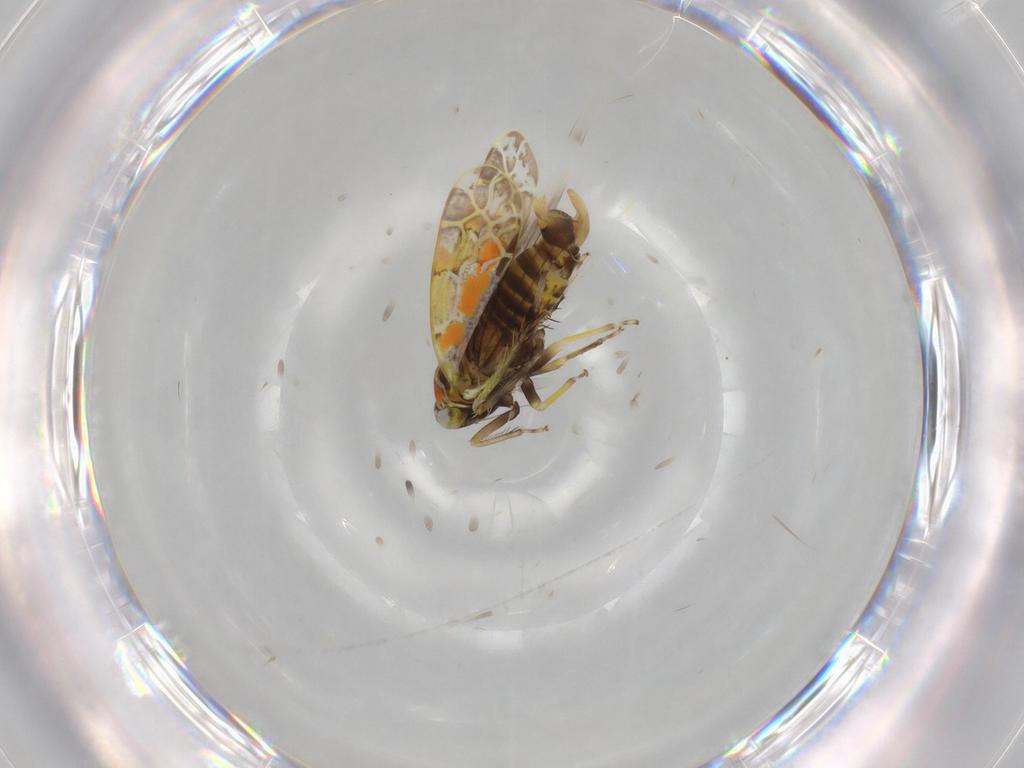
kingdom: Animalia
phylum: Arthropoda
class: Insecta
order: Hemiptera
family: Cicadellidae
